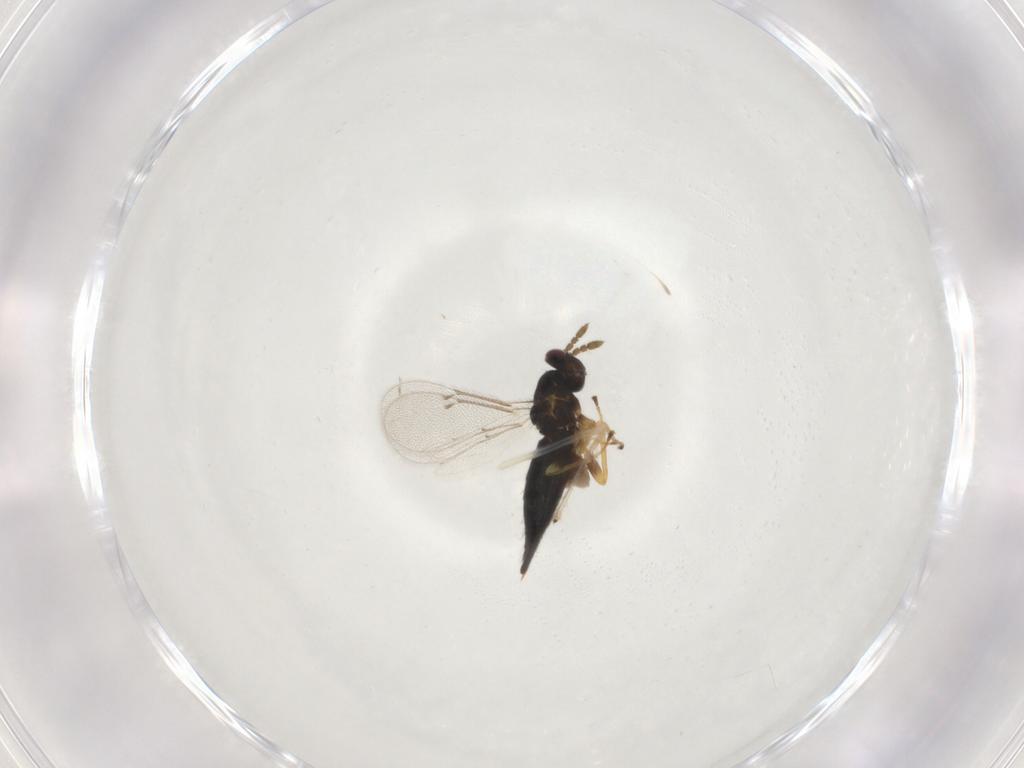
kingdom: Animalia
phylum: Arthropoda
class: Insecta
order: Hymenoptera
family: Eulophidae
